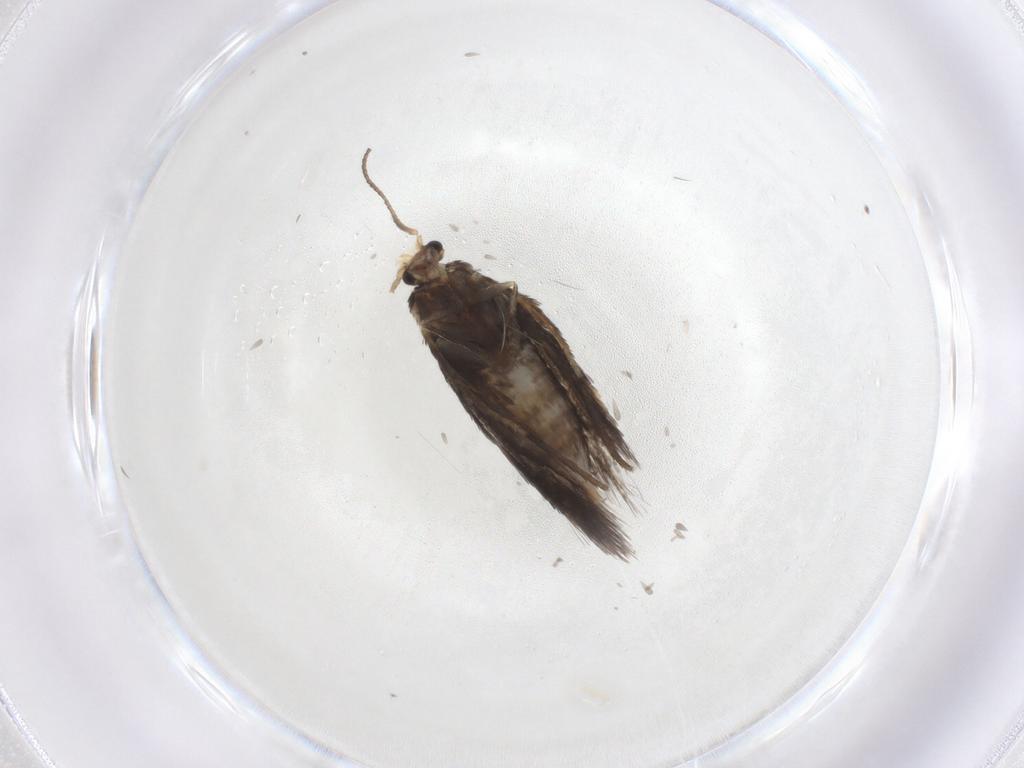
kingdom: Animalia
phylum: Arthropoda
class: Insecta
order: Lepidoptera
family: Nepticulidae
